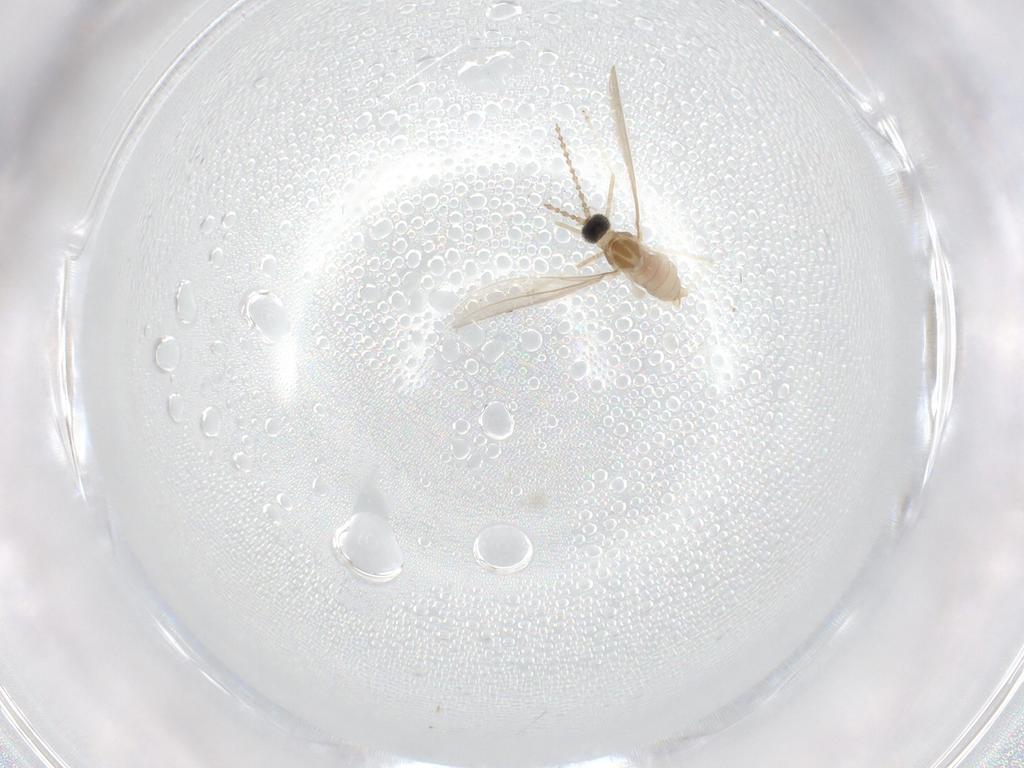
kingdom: Animalia
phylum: Arthropoda
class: Insecta
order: Diptera
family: Cecidomyiidae
